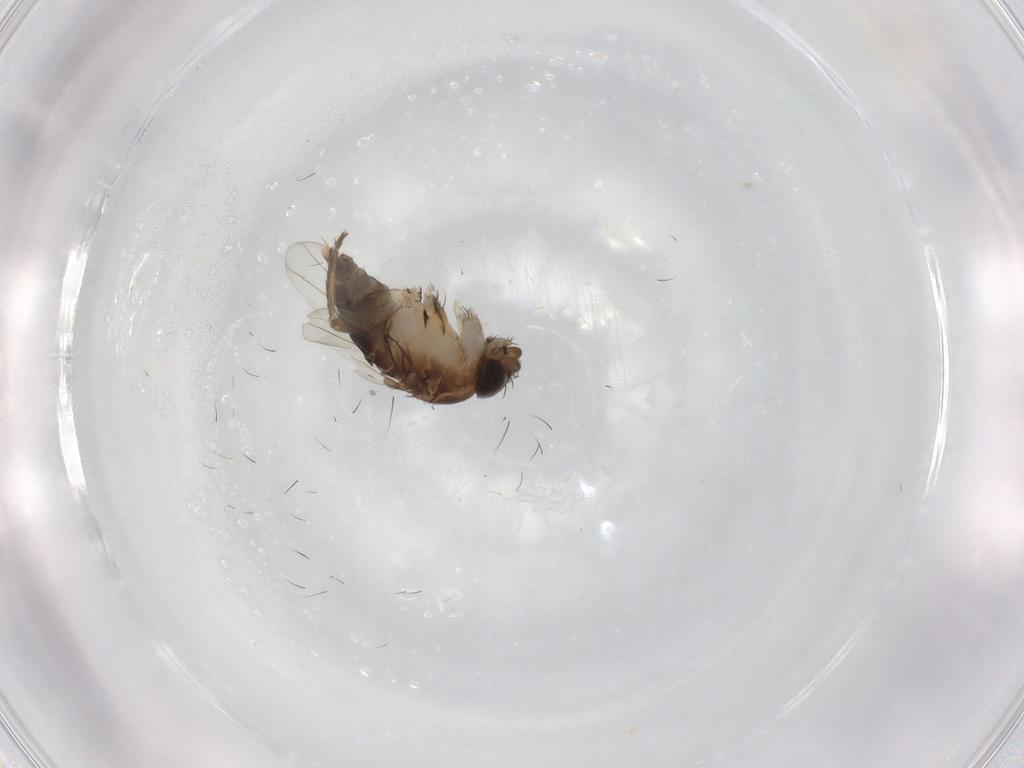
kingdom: Animalia
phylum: Arthropoda
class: Insecta
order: Diptera
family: Phoridae
